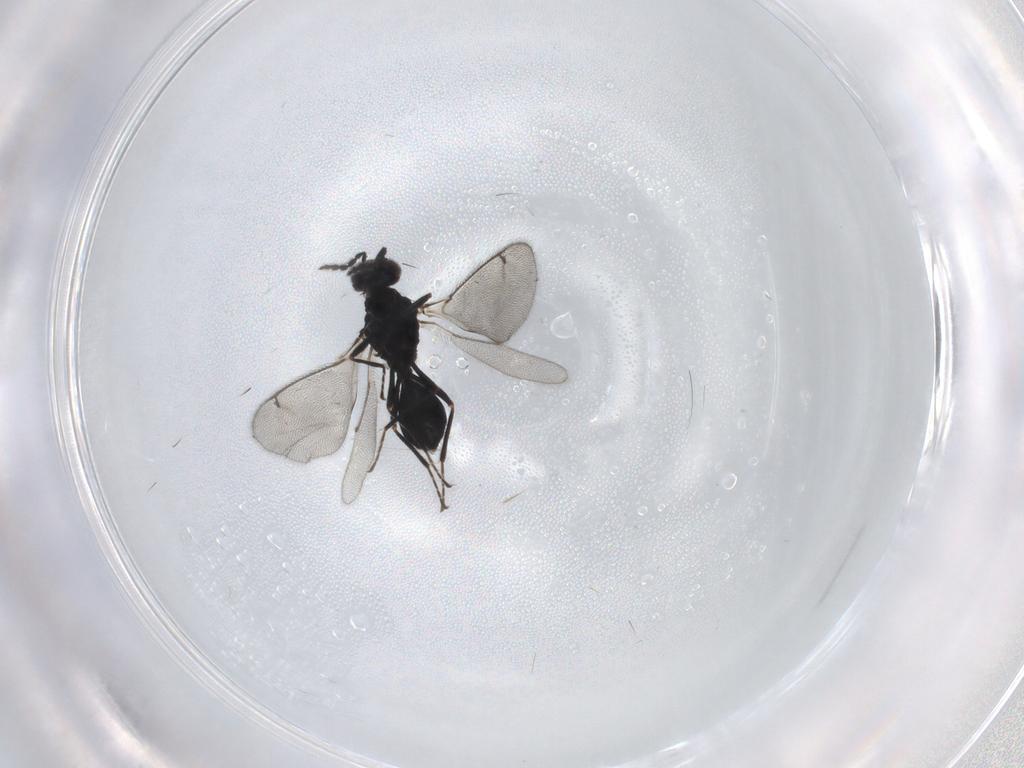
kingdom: Animalia
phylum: Arthropoda
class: Insecta
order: Hymenoptera
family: Eulophidae
